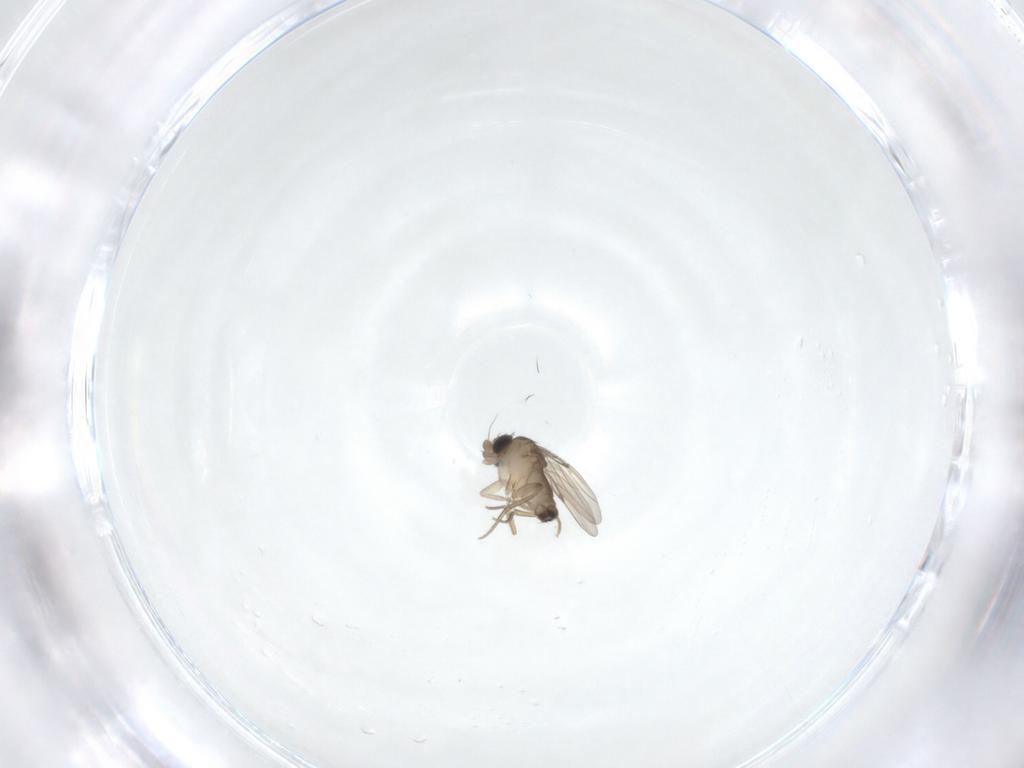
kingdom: Animalia
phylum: Arthropoda
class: Insecta
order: Diptera
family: Phoridae
